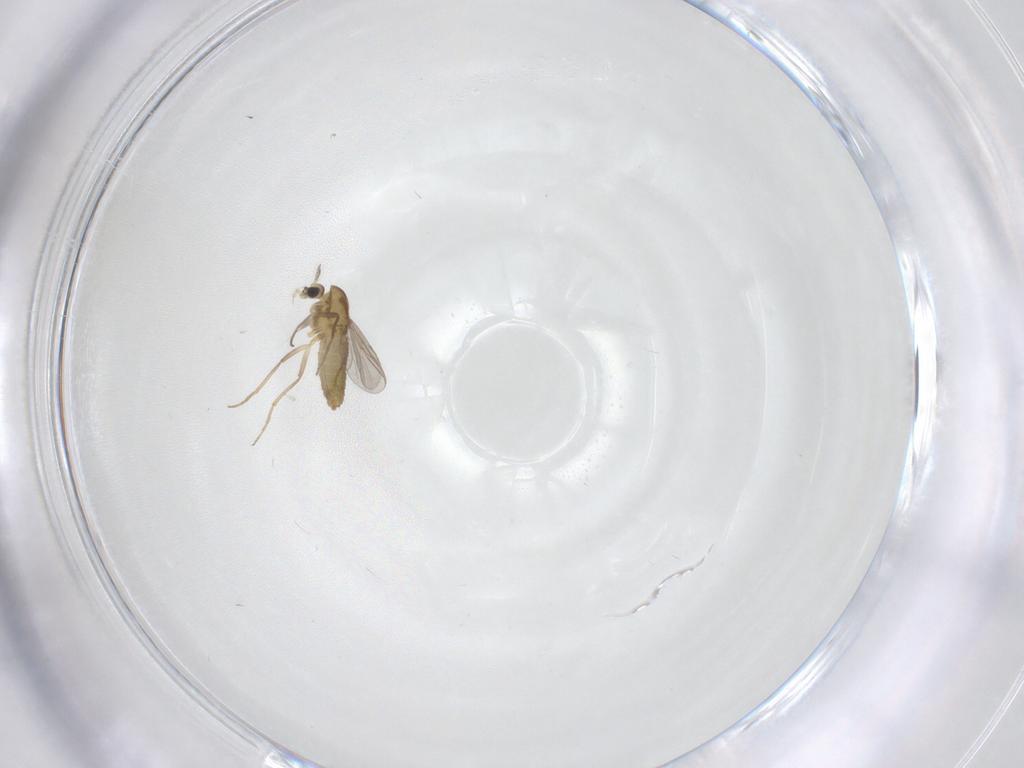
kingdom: Animalia
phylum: Arthropoda
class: Insecta
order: Diptera
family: Chironomidae
